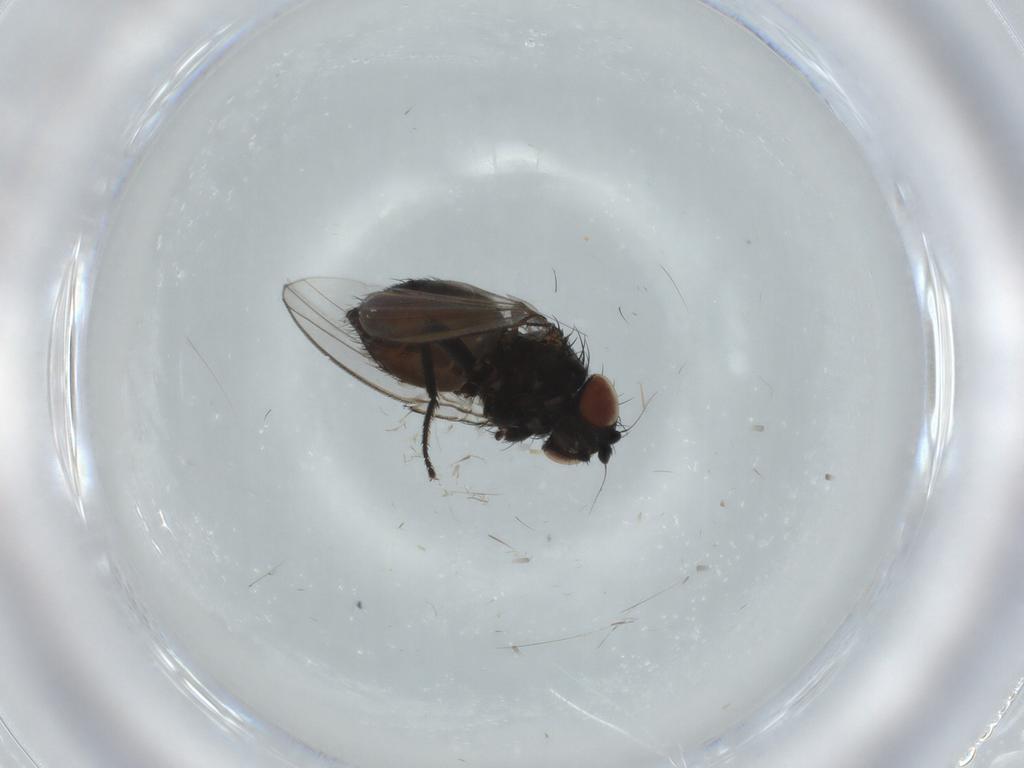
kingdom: Animalia
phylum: Arthropoda
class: Insecta
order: Diptera
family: Milichiidae
